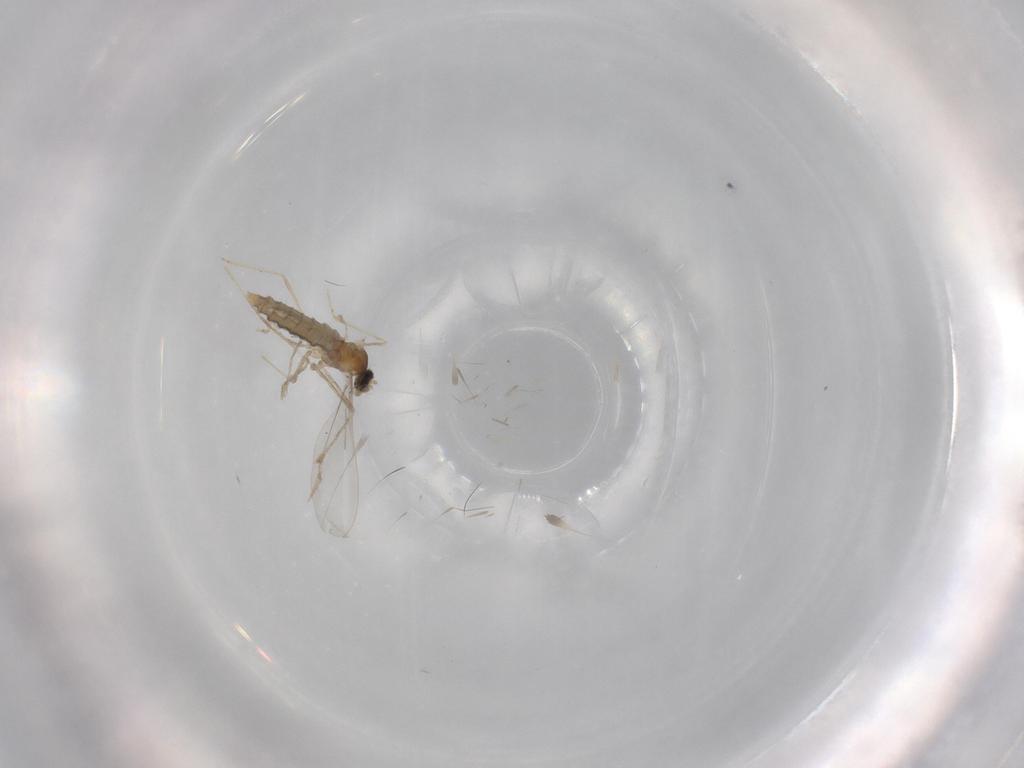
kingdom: Animalia
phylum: Arthropoda
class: Insecta
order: Diptera
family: Cecidomyiidae
